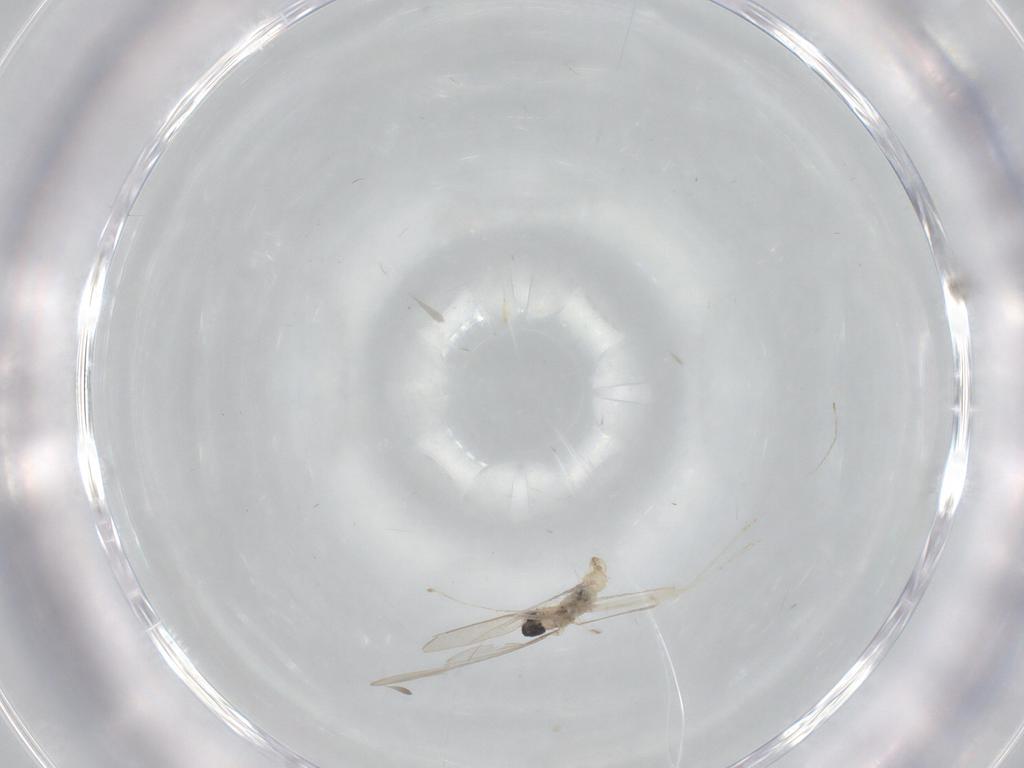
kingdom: Animalia
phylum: Arthropoda
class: Insecta
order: Diptera
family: Cecidomyiidae
